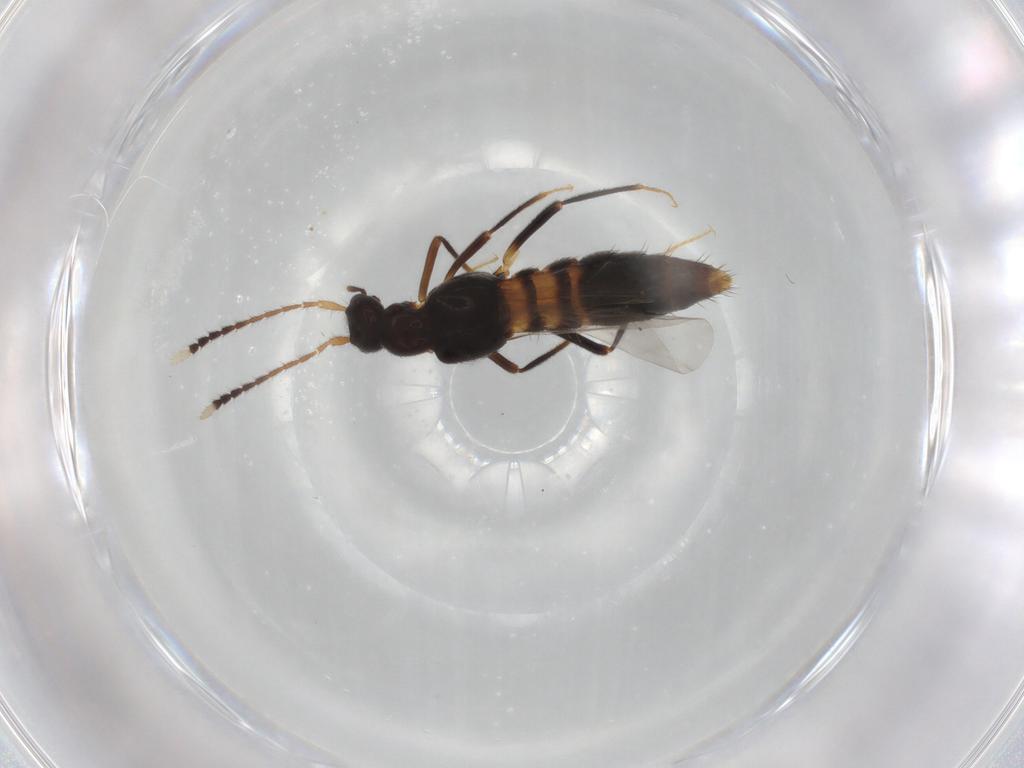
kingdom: Animalia
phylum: Arthropoda
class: Insecta
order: Coleoptera
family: Staphylinidae
